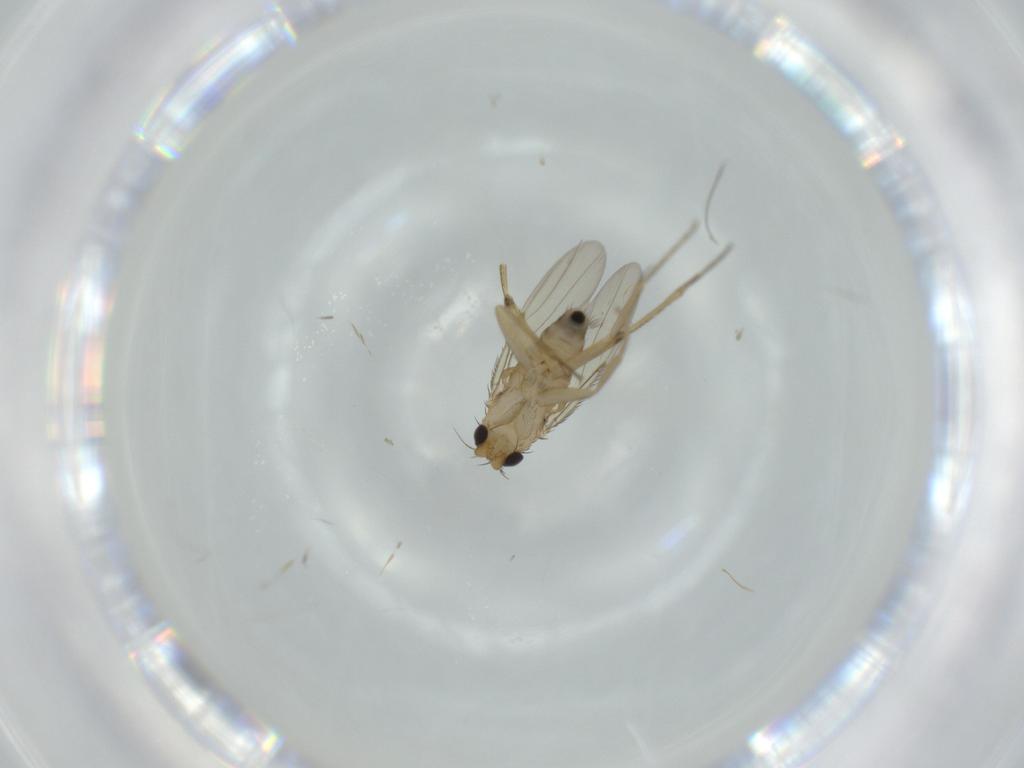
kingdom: Animalia
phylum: Arthropoda
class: Insecta
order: Diptera
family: Phoridae
